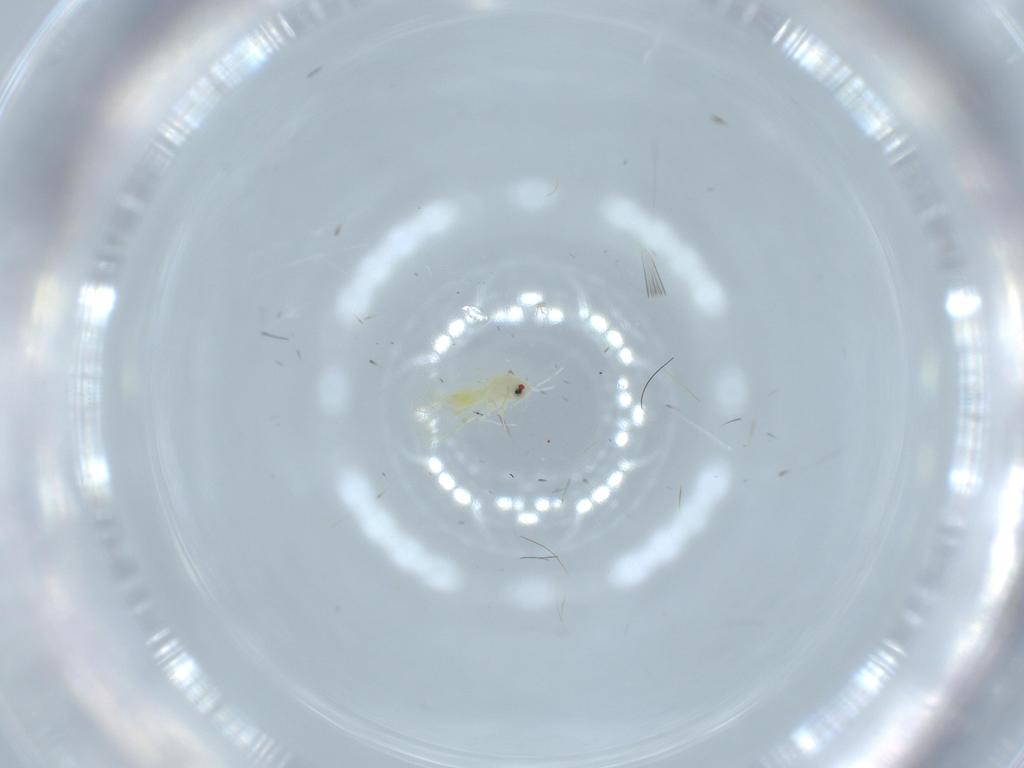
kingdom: Animalia
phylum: Arthropoda
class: Insecta
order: Hemiptera
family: Aleyrodidae
